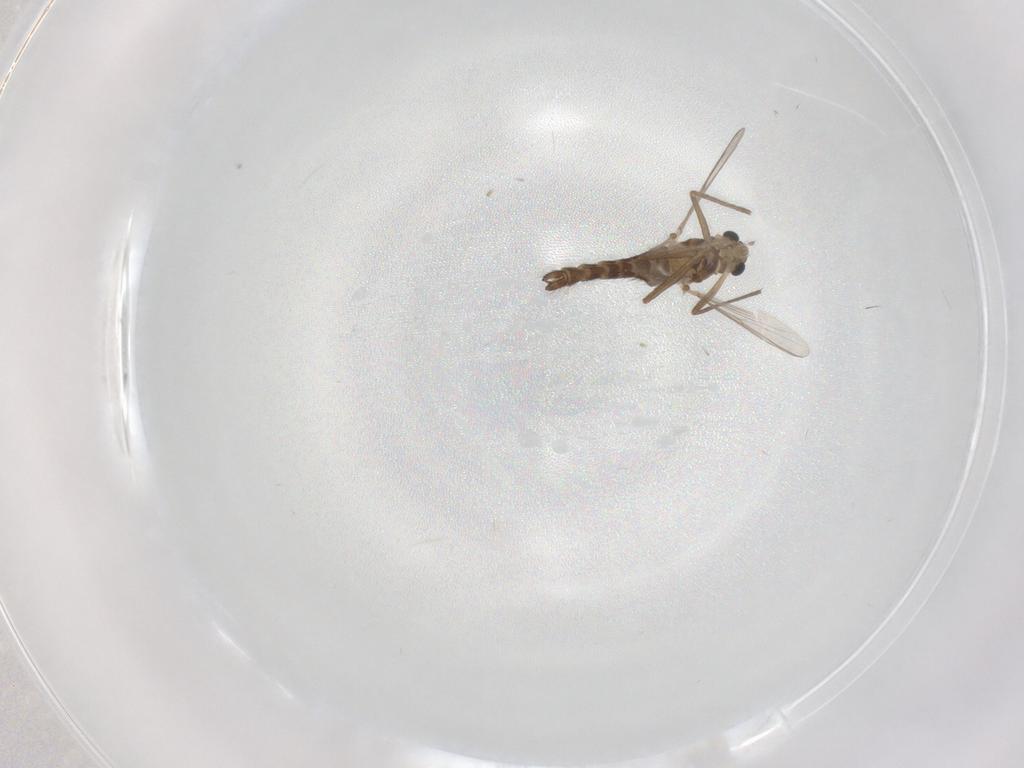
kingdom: Animalia
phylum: Arthropoda
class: Insecta
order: Diptera
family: Chironomidae
